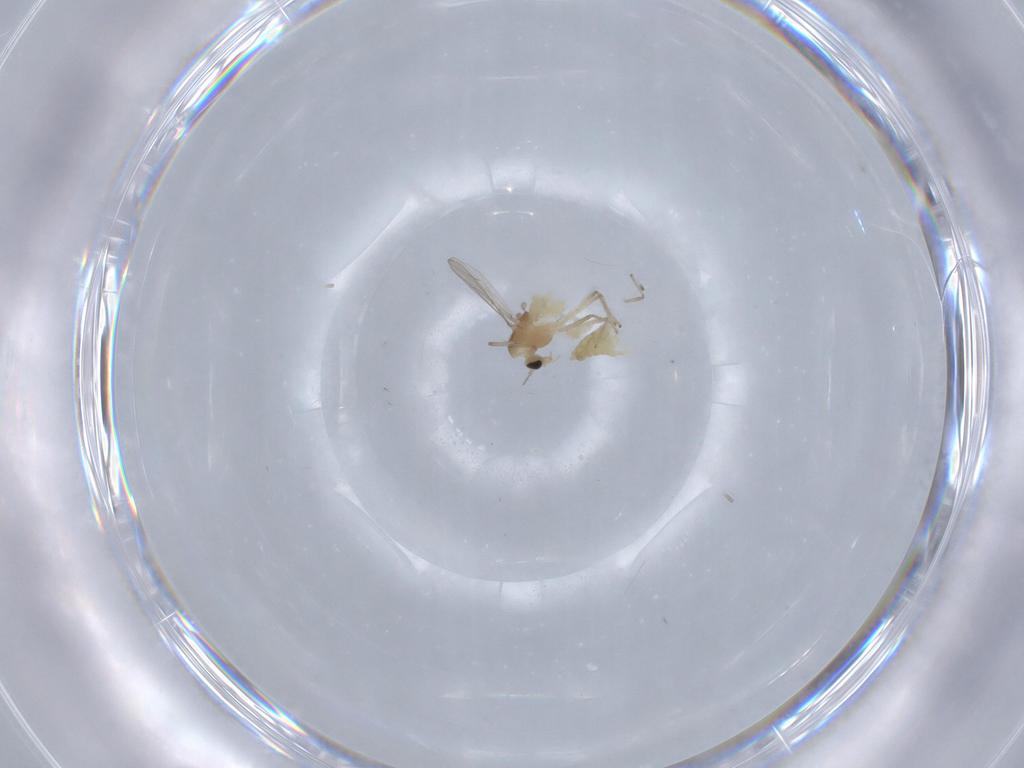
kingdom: Animalia
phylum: Arthropoda
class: Insecta
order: Diptera
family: Chironomidae
